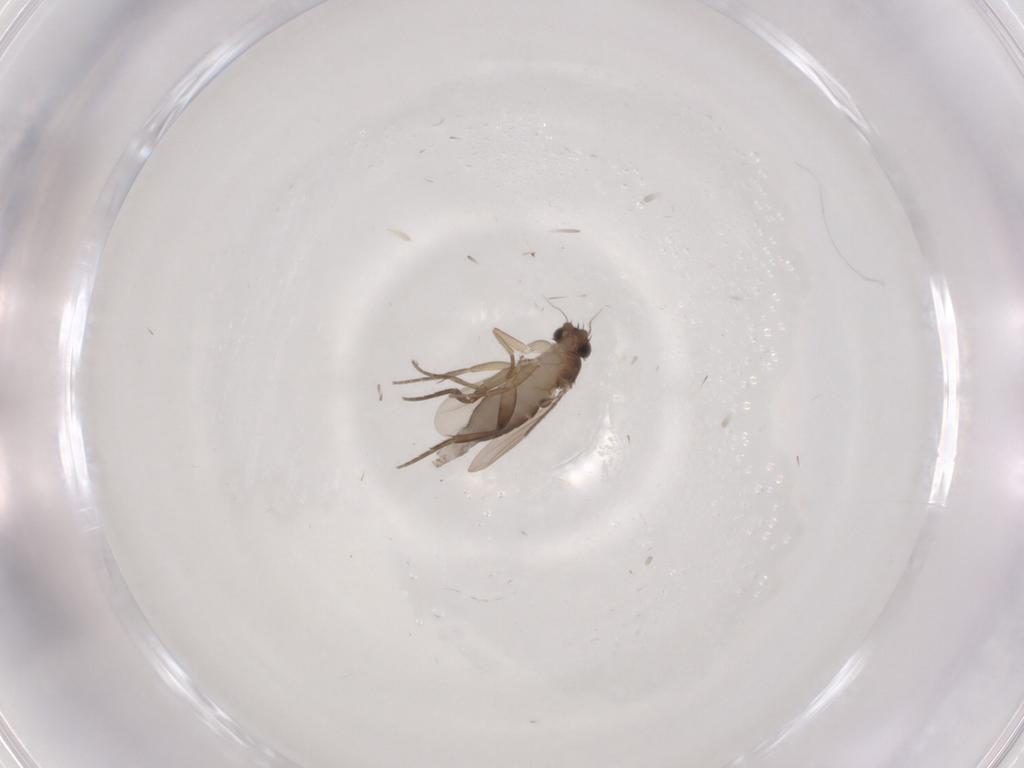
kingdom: Animalia
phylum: Arthropoda
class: Insecta
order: Diptera
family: Phoridae
